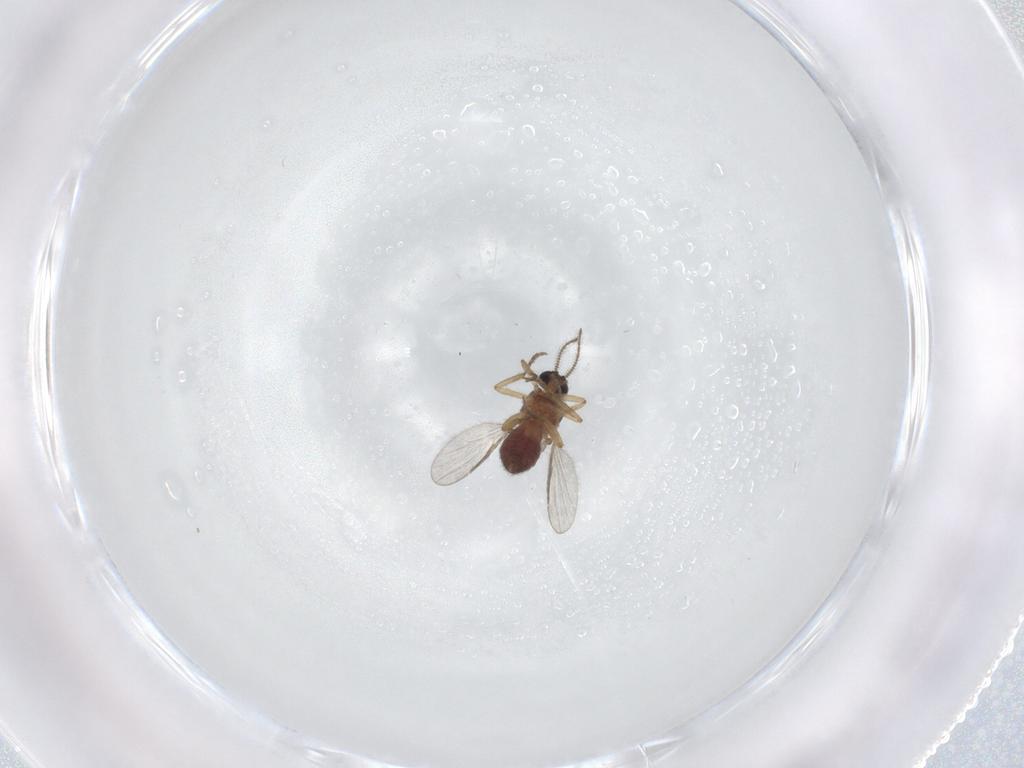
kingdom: Animalia
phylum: Arthropoda
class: Insecta
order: Diptera
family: Chironomidae
